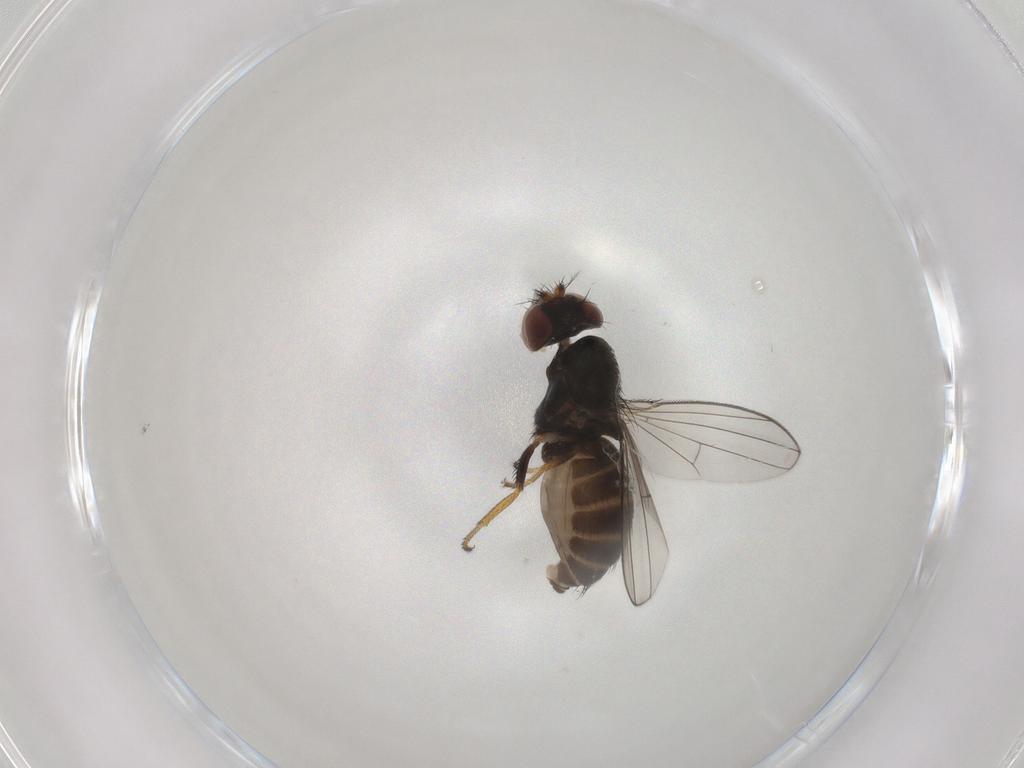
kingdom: Animalia
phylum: Arthropoda
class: Insecta
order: Diptera
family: Ephydridae
